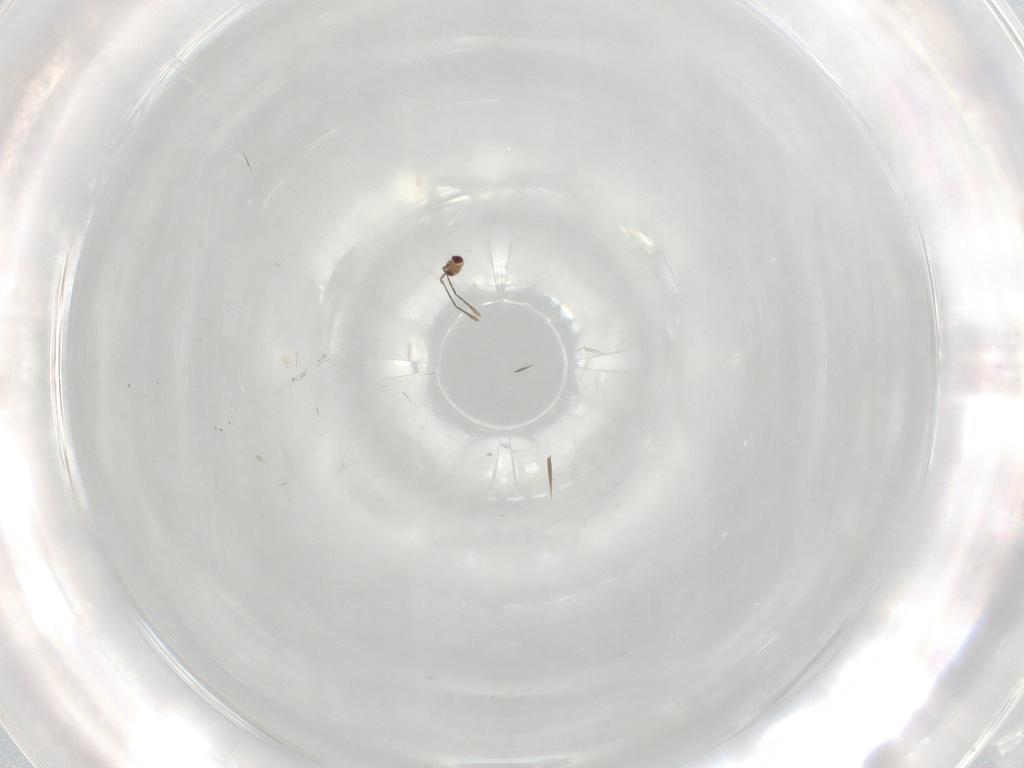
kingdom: Animalia
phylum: Arthropoda
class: Insecta
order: Hymenoptera
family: Mymaridae
